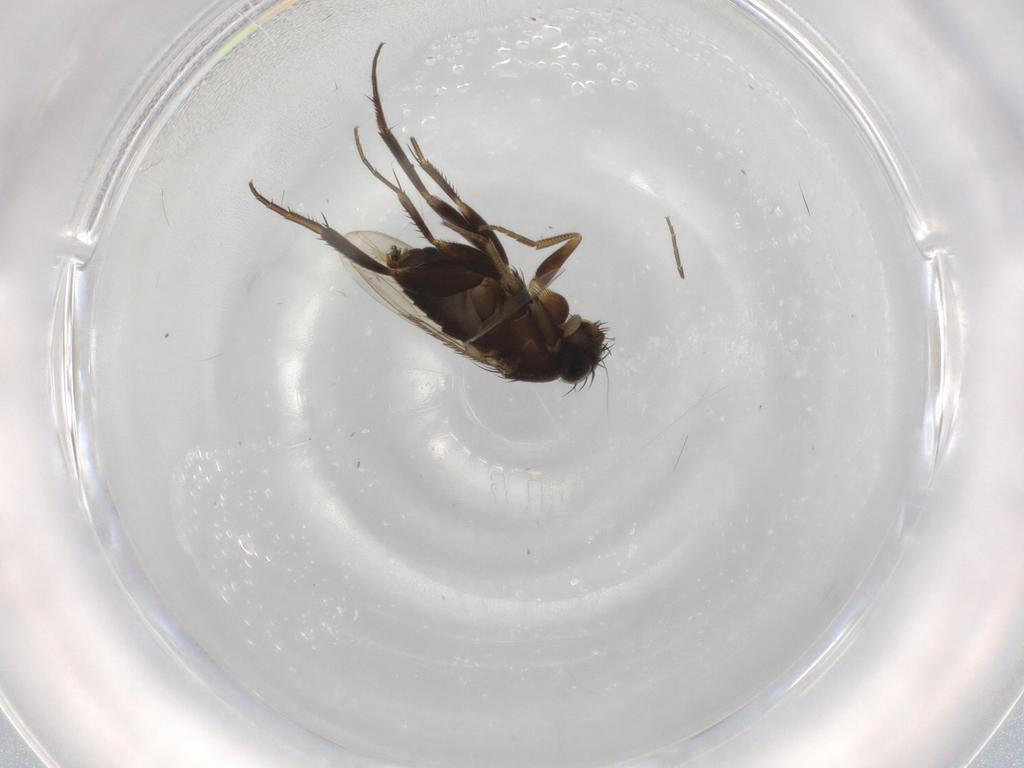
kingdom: Animalia
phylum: Arthropoda
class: Insecta
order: Diptera
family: Phoridae
